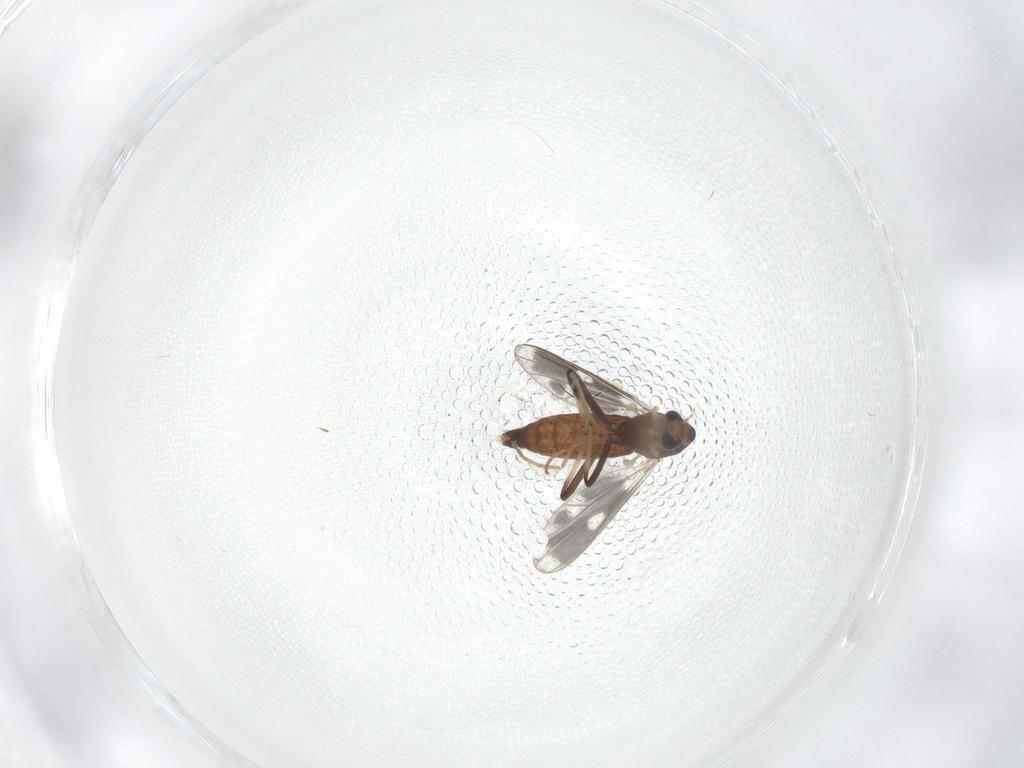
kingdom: Animalia
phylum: Arthropoda
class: Insecta
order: Diptera
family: Chironomidae
